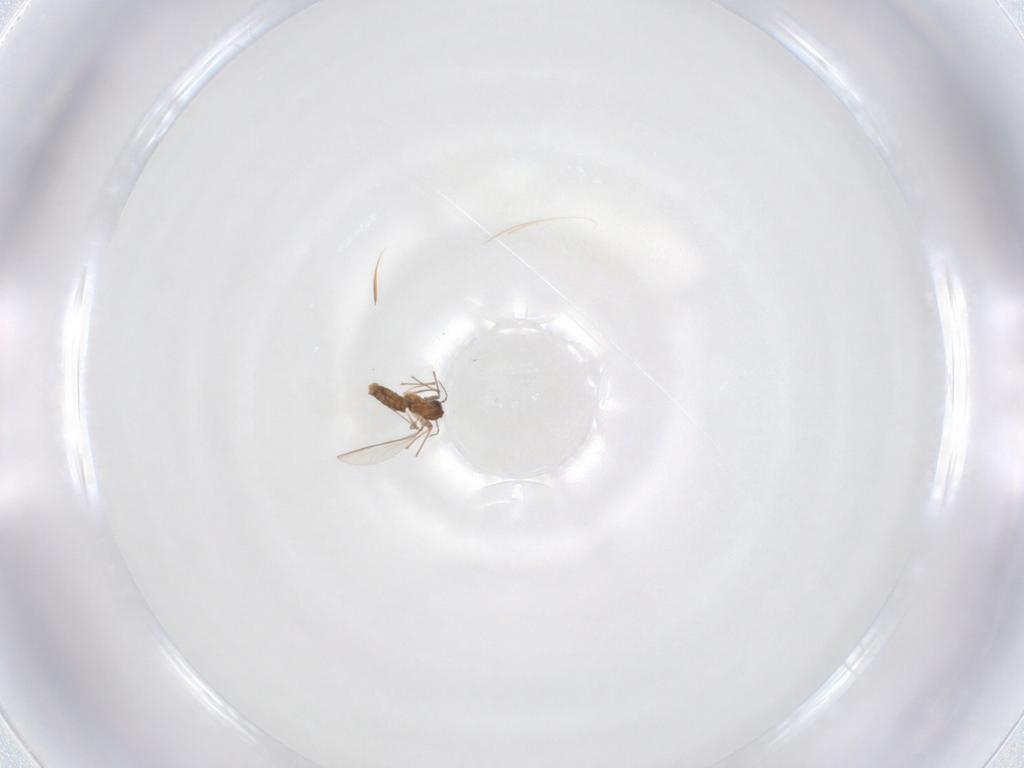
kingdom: Animalia
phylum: Arthropoda
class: Insecta
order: Diptera
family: Chironomidae
